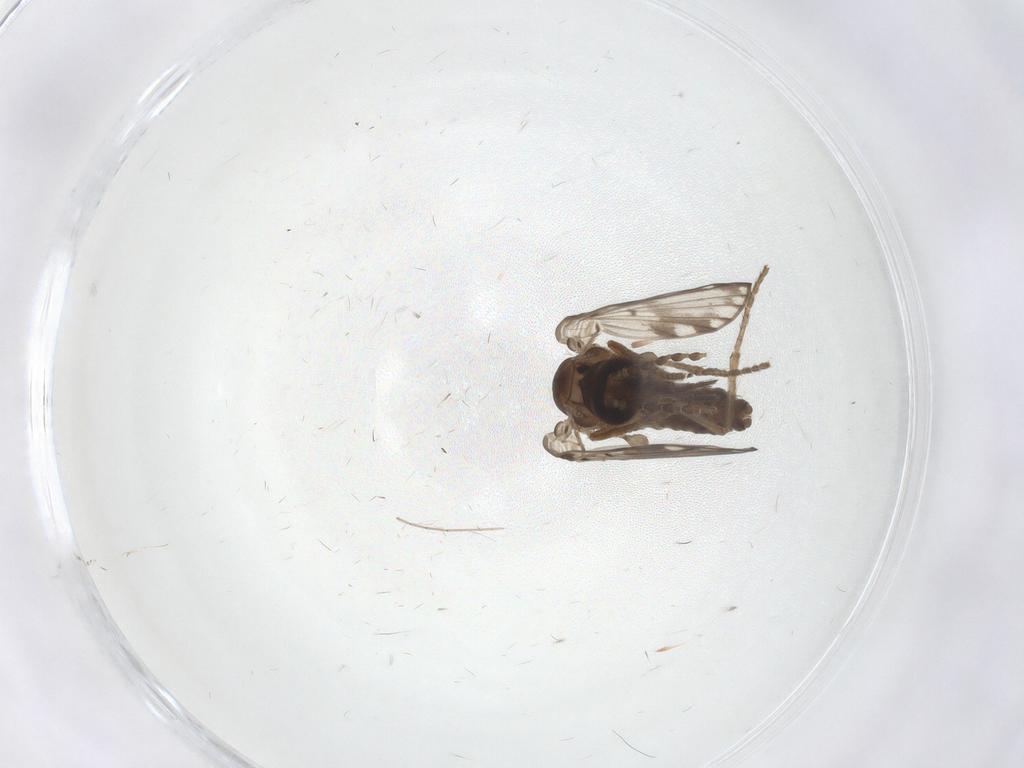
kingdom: Animalia
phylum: Arthropoda
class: Insecta
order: Diptera
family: Psychodidae
